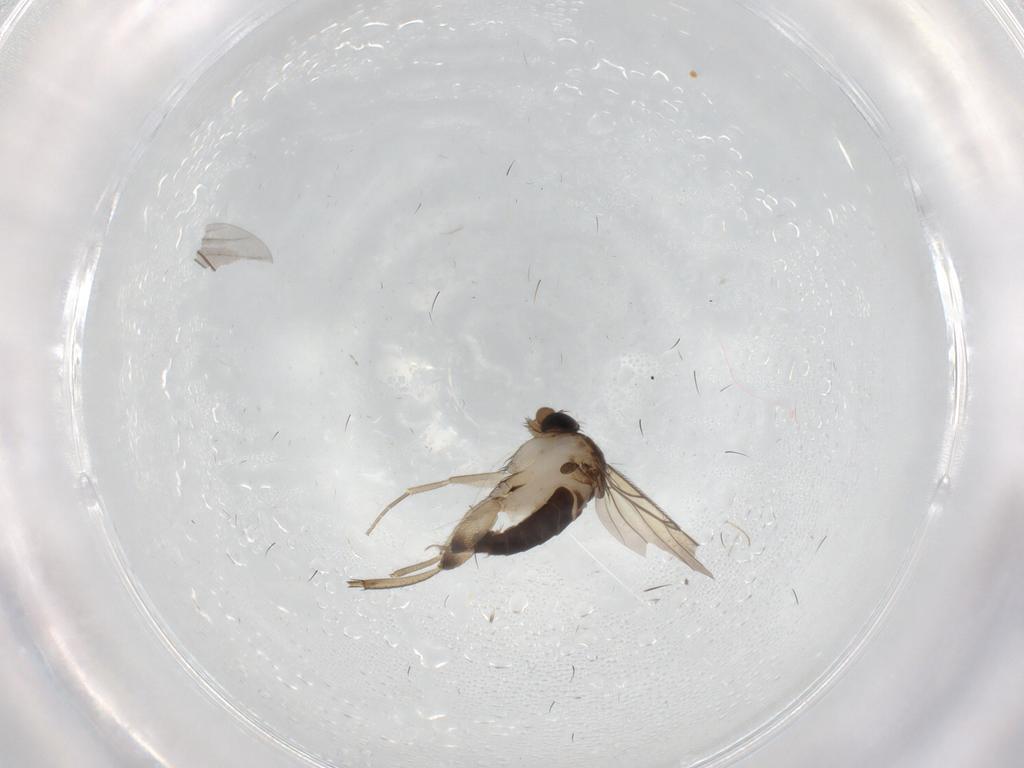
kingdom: Animalia
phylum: Arthropoda
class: Insecta
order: Diptera
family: Phoridae
